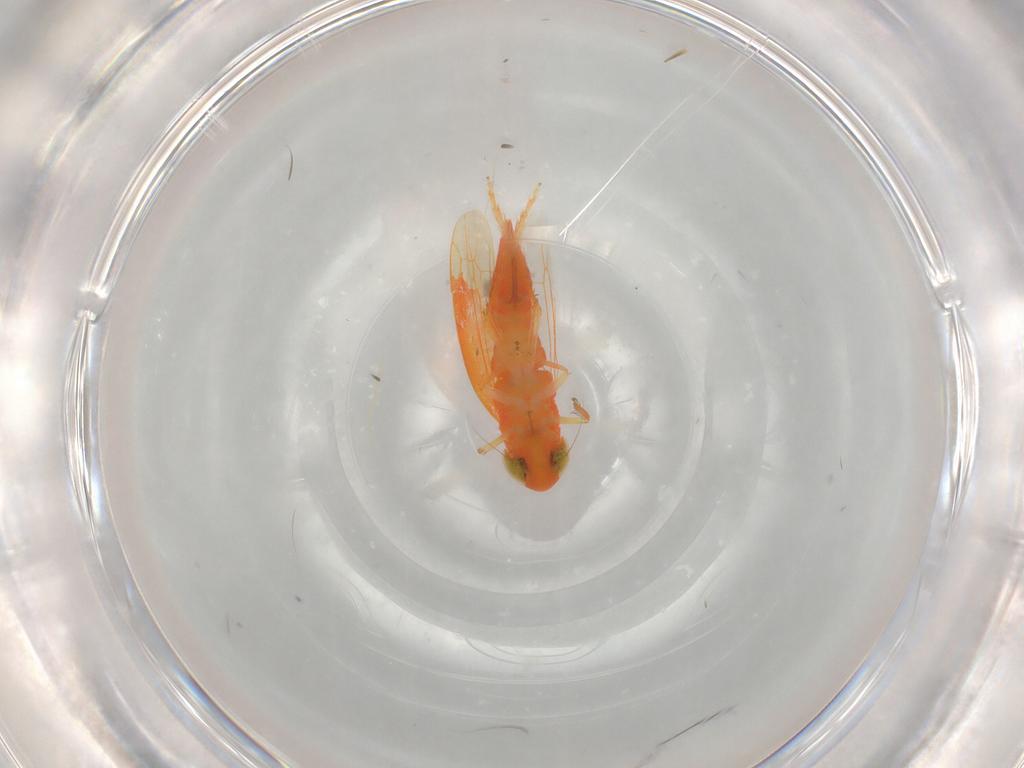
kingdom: Animalia
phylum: Arthropoda
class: Insecta
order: Hemiptera
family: Cicadellidae
